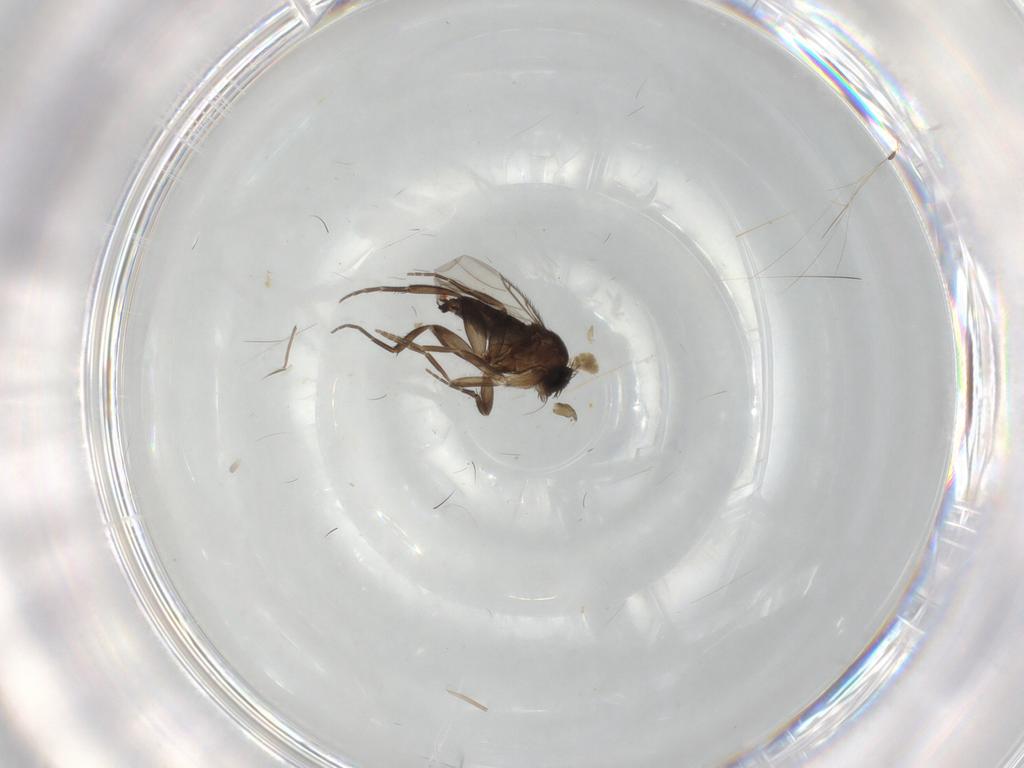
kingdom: Animalia
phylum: Arthropoda
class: Insecta
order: Diptera
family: Phoridae
